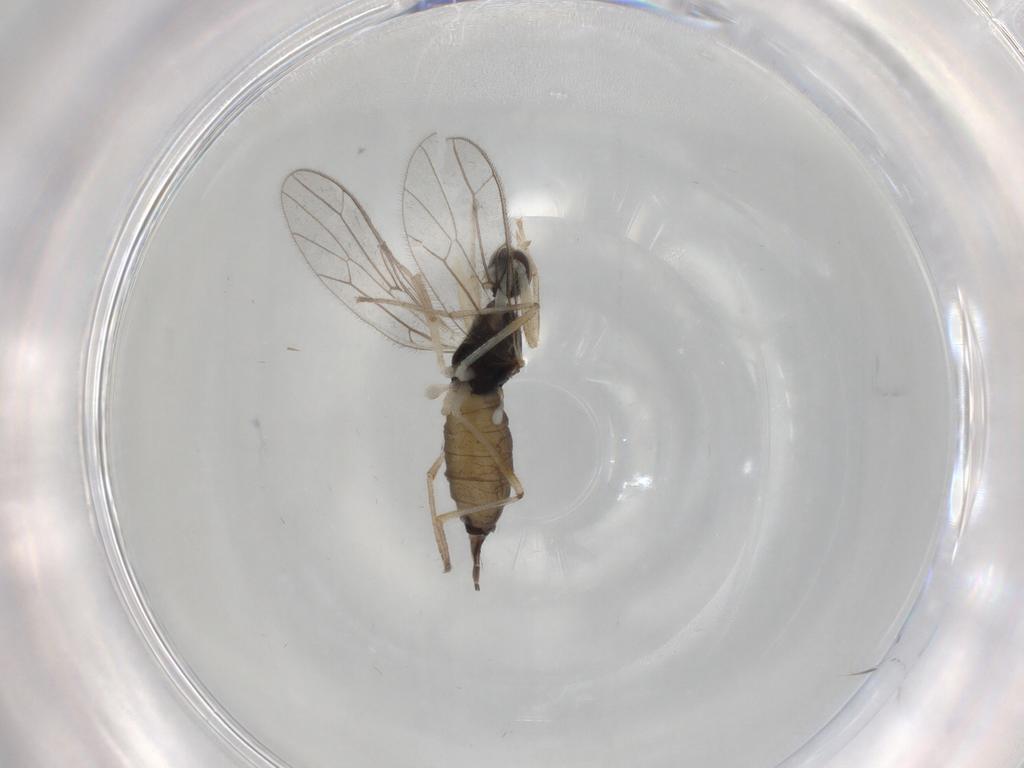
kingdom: Animalia
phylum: Arthropoda
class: Insecta
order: Diptera
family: Empididae
